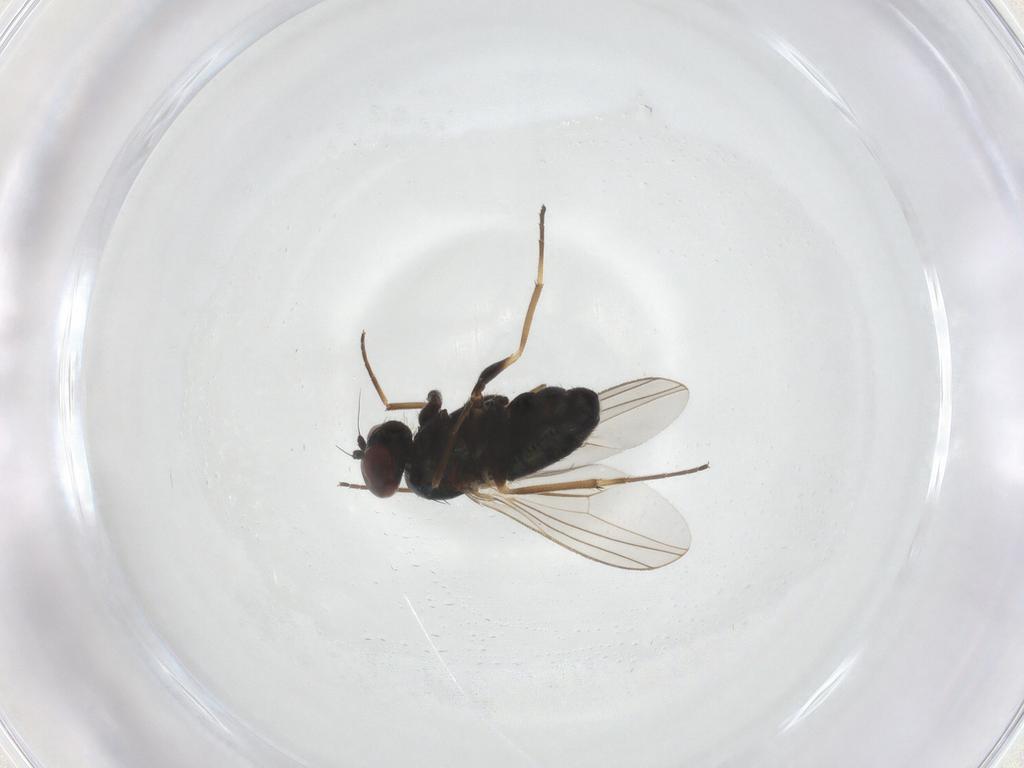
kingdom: Animalia
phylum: Arthropoda
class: Insecta
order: Diptera
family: Dolichopodidae
